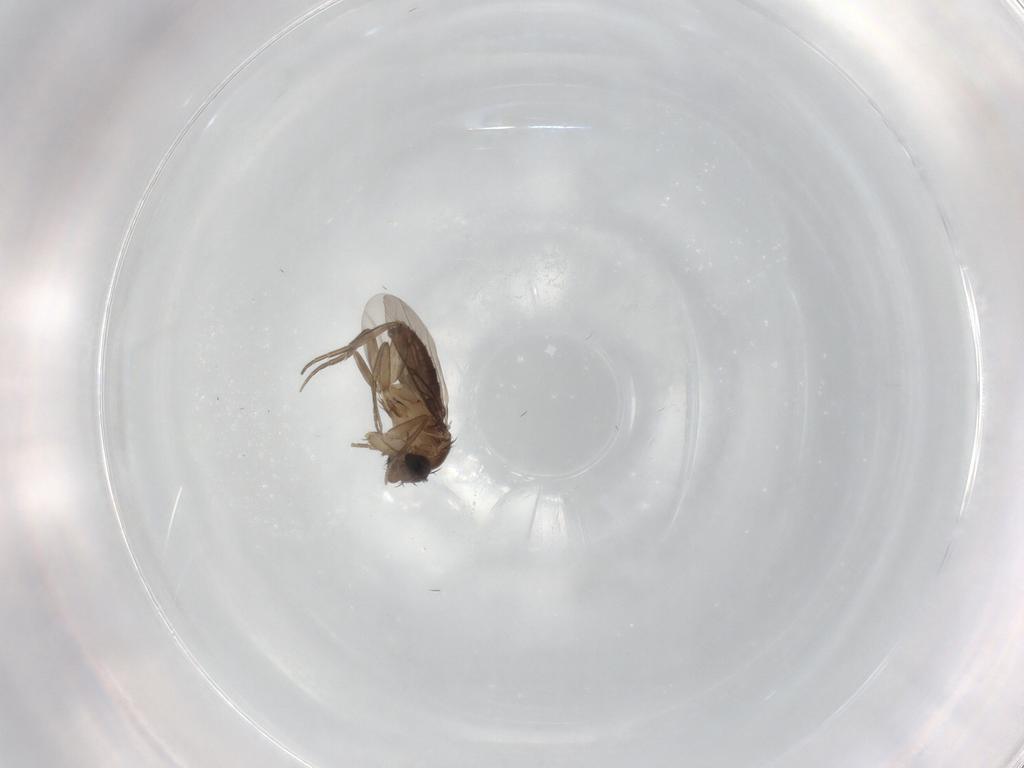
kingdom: Animalia
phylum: Arthropoda
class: Insecta
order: Diptera
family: Phoridae
